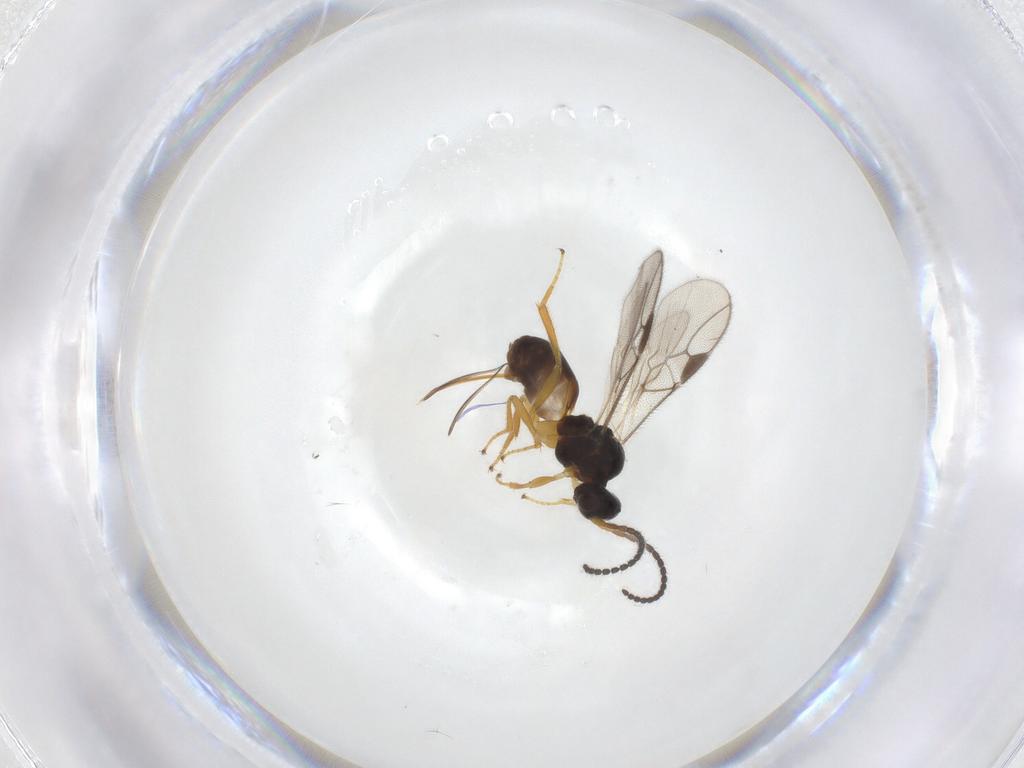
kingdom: Animalia
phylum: Arthropoda
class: Insecta
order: Hymenoptera
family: Braconidae
